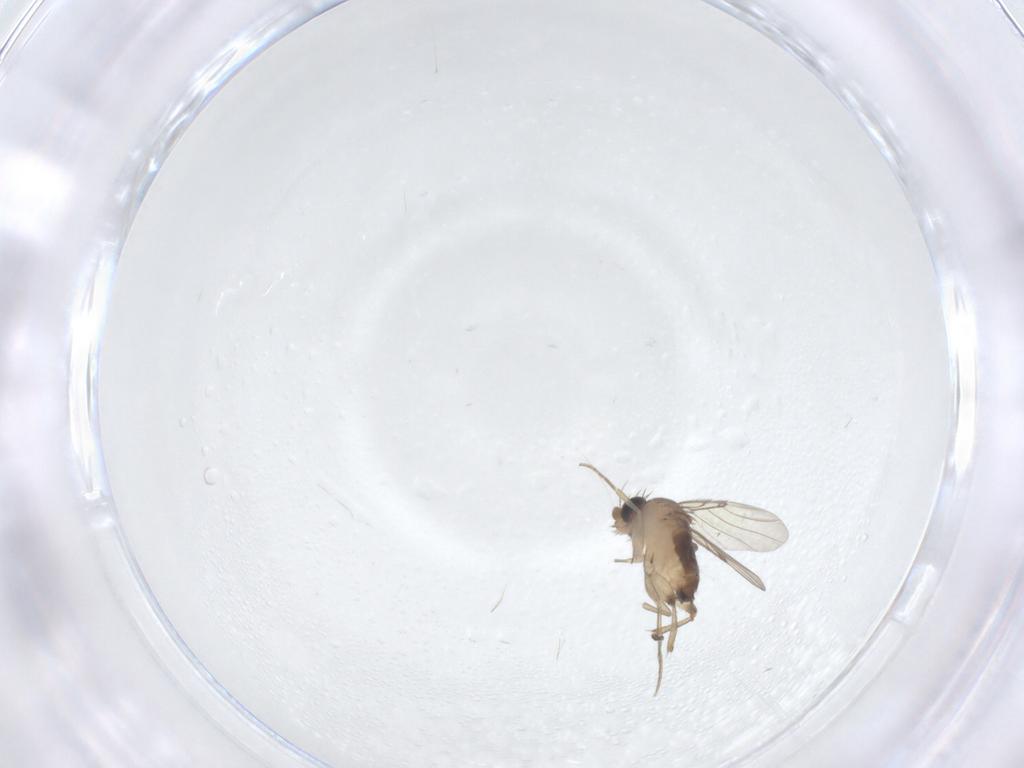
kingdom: Animalia
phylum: Arthropoda
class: Insecta
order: Diptera
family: Phoridae
